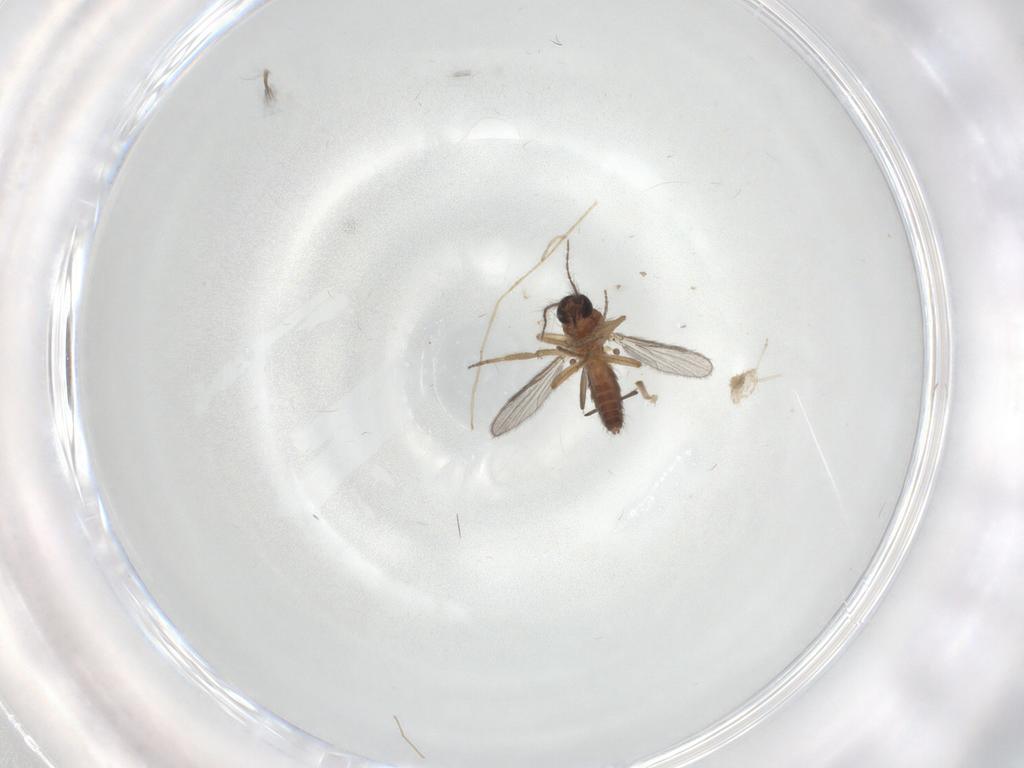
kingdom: Animalia
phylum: Arthropoda
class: Insecta
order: Diptera
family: Ceratopogonidae
